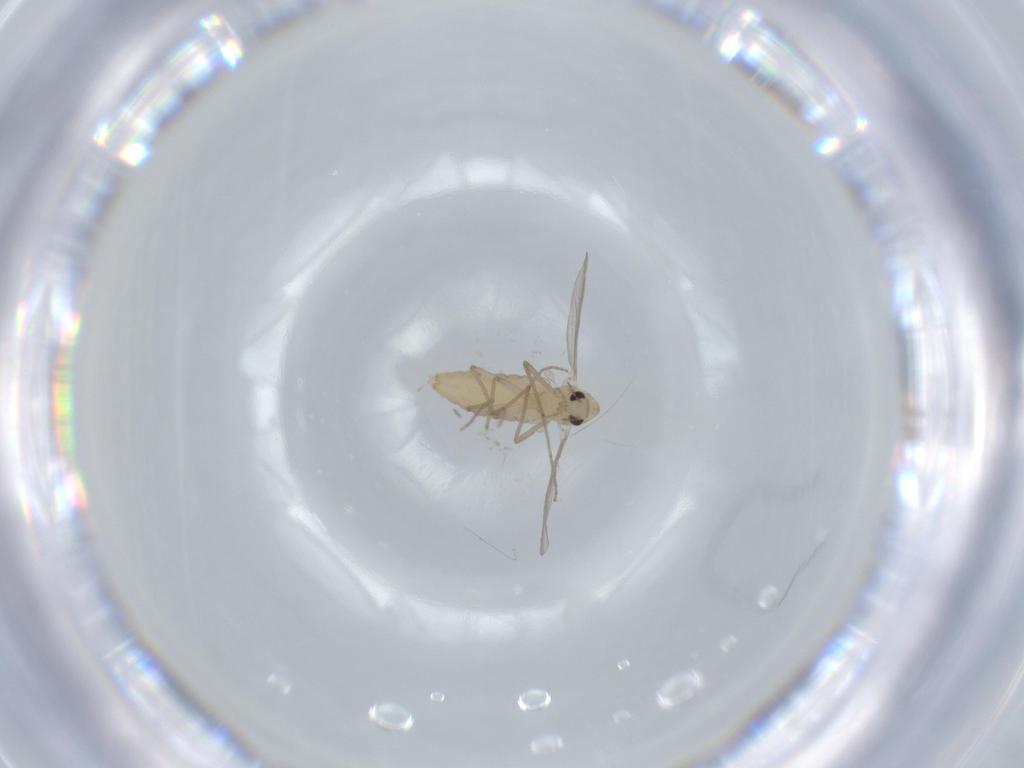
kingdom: Animalia
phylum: Arthropoda
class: Insecta
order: Diptera
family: Chironomidae
